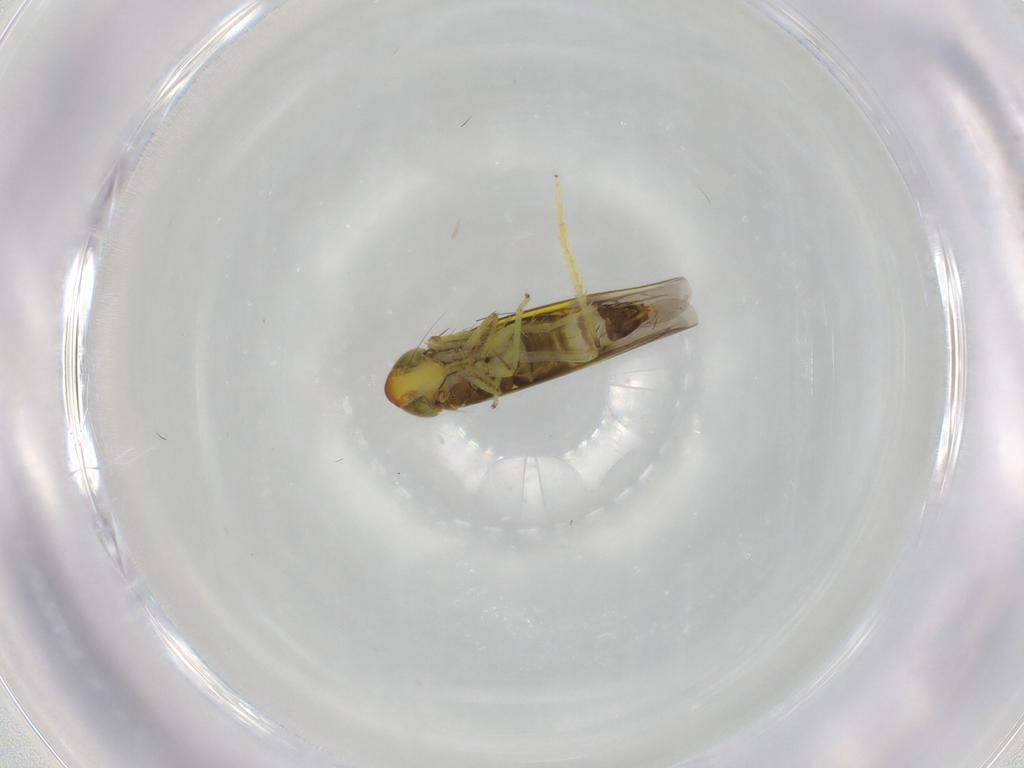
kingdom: Animalia
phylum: Arthropoda
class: Insecta
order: Hemiptera
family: Cicadellidae
